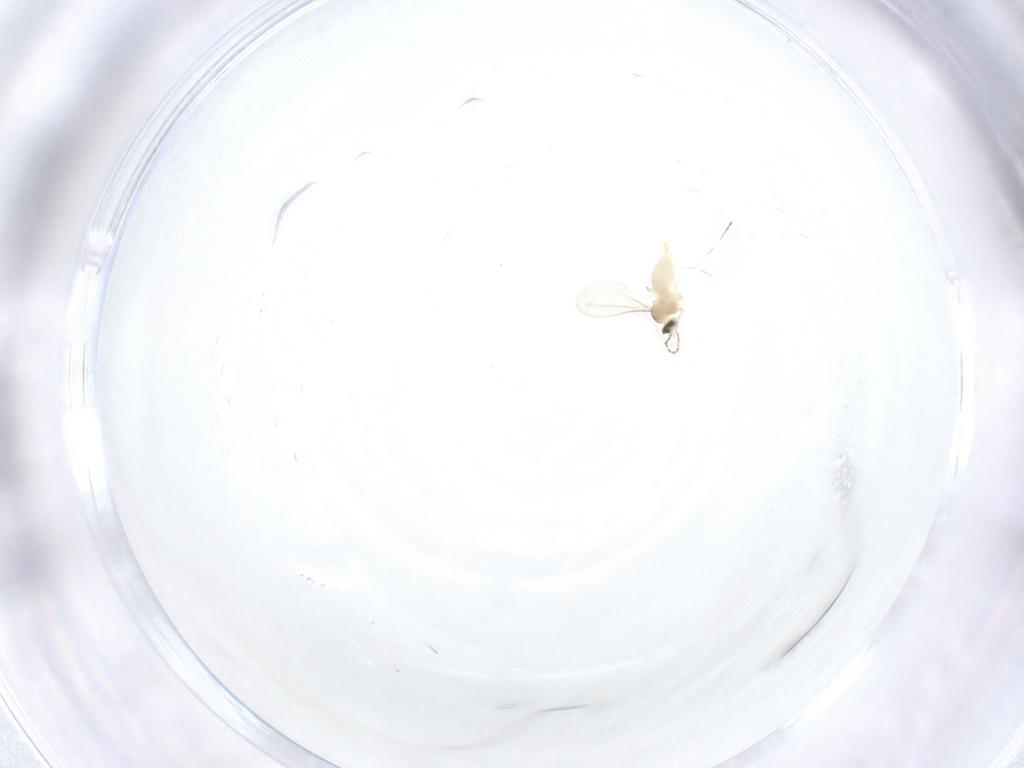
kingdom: Animalia
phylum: Arthropoda
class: Insecta
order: Diptera
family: Cecidomyiidae
